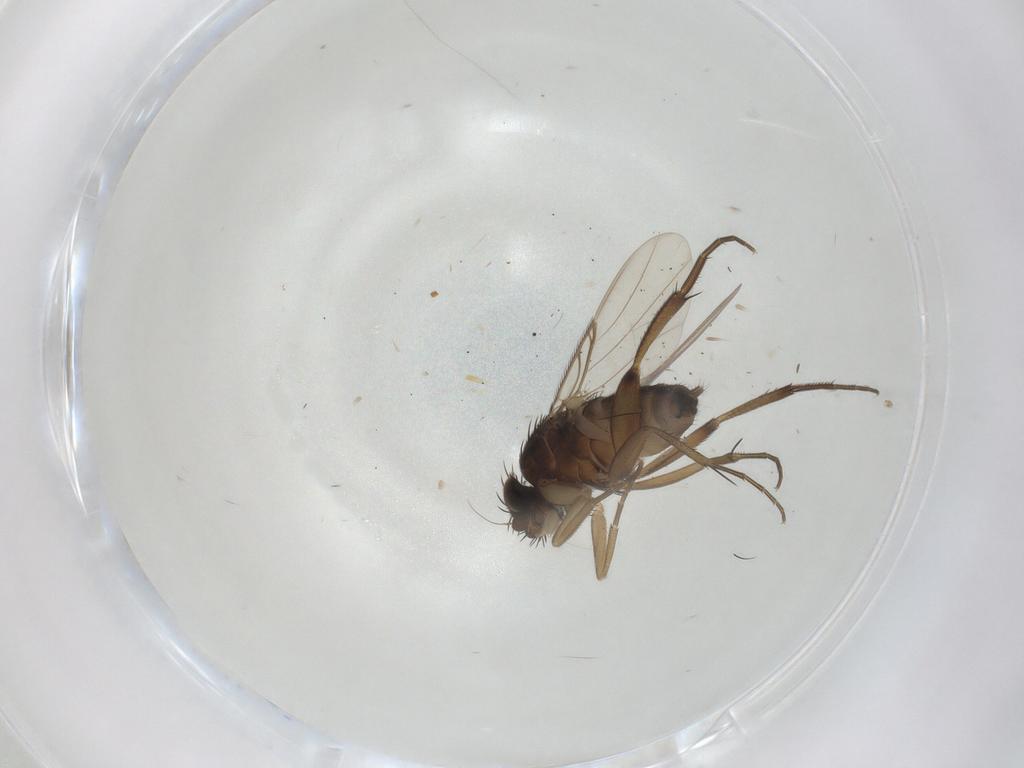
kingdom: Animalia
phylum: Arthropoda
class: Insecta
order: Diptera
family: Phoridae
